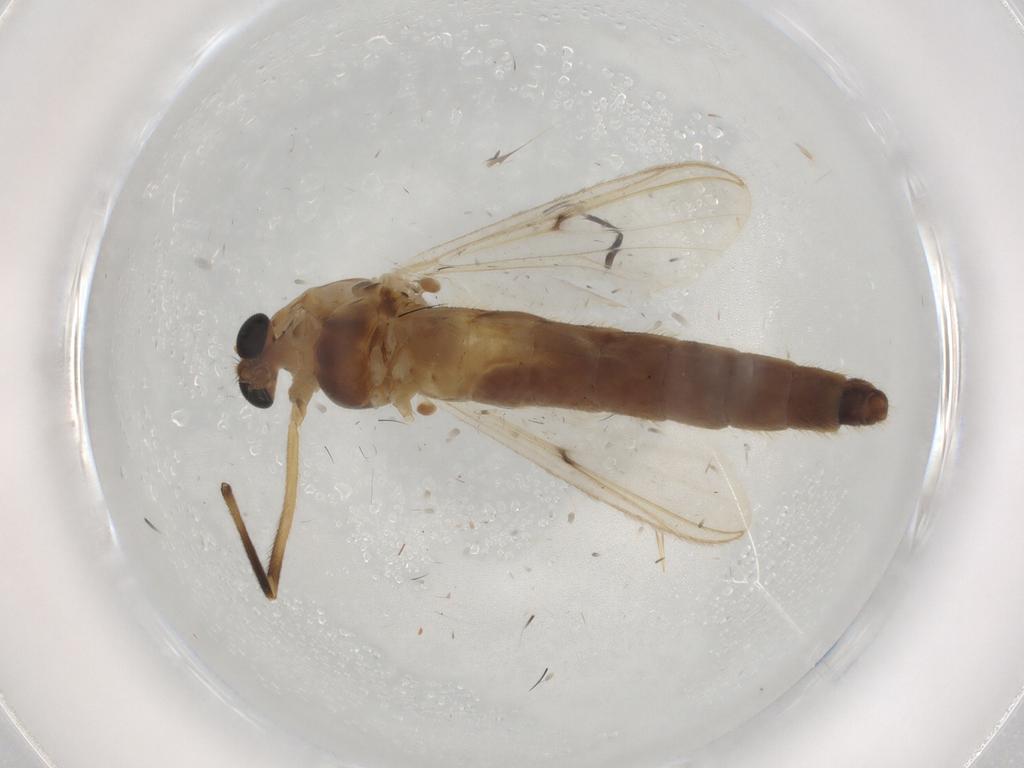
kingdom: Animalia
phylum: Arthropoda
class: Insecta
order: Diptera
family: Chironomidae
